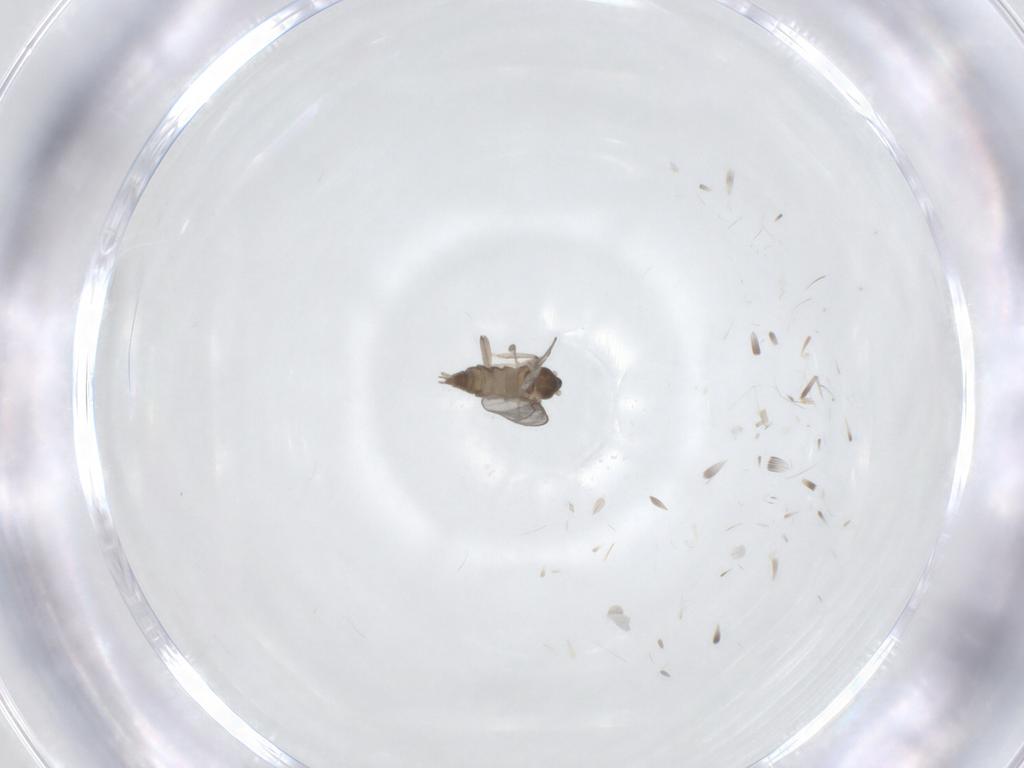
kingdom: Animalia
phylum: Arthropoda
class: Insecta
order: Diptera
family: Cecidomyiidae
